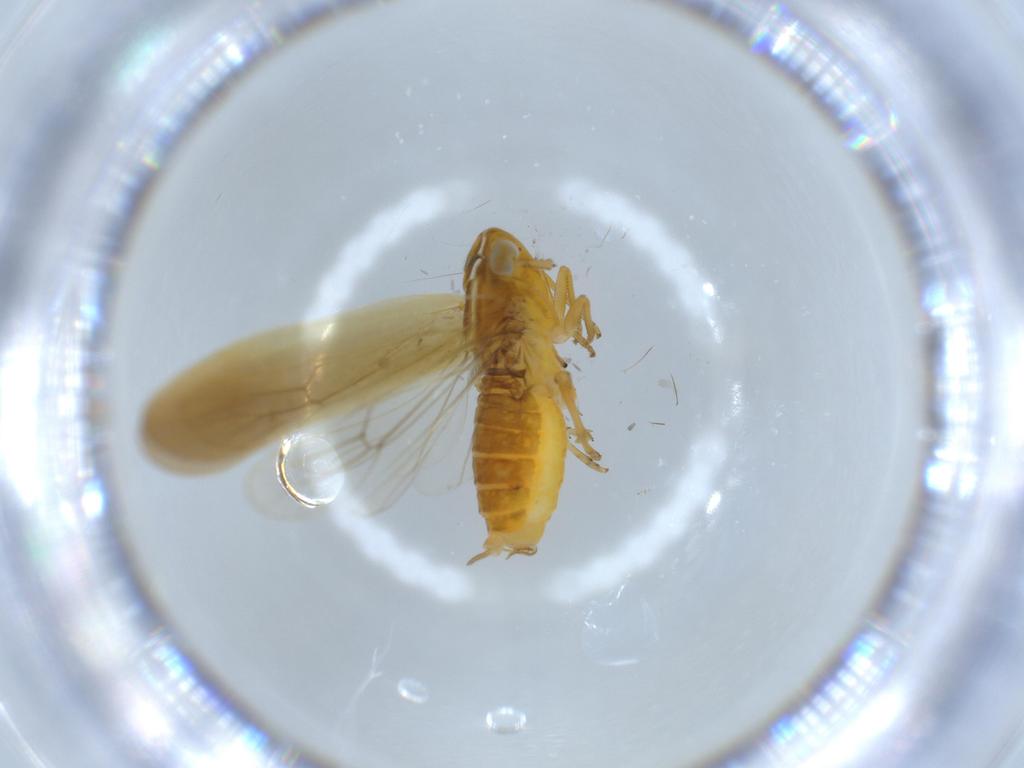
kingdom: Animalia
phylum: Arthropoda
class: Insecta
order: Hemiptera
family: Delphacidae
